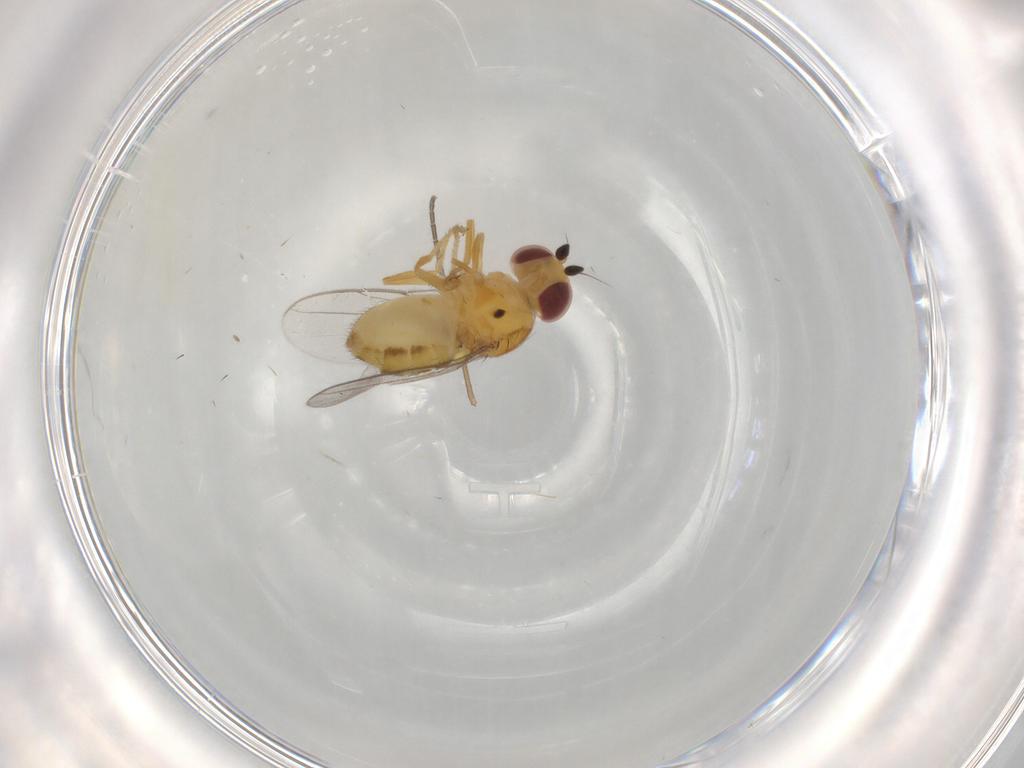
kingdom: Animalia
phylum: Arthropoda
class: Insecta
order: Diptera
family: Chloropidae
